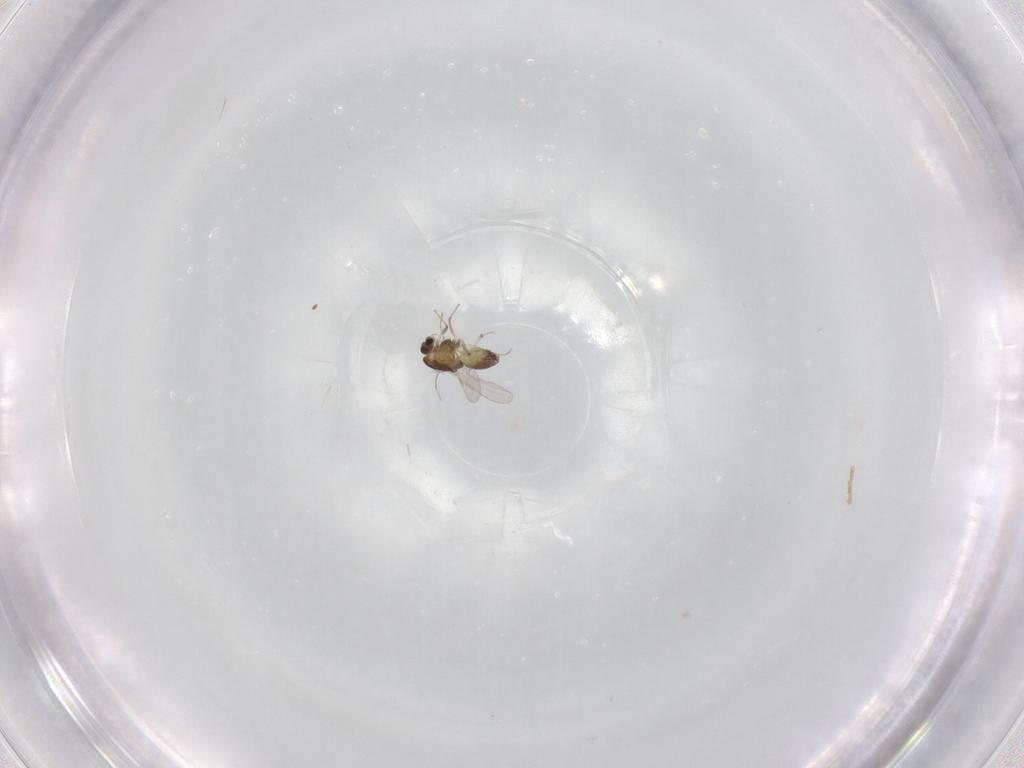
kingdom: Animalia
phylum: Arthropoda
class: Insecta
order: Diptera
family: Chironomidae
